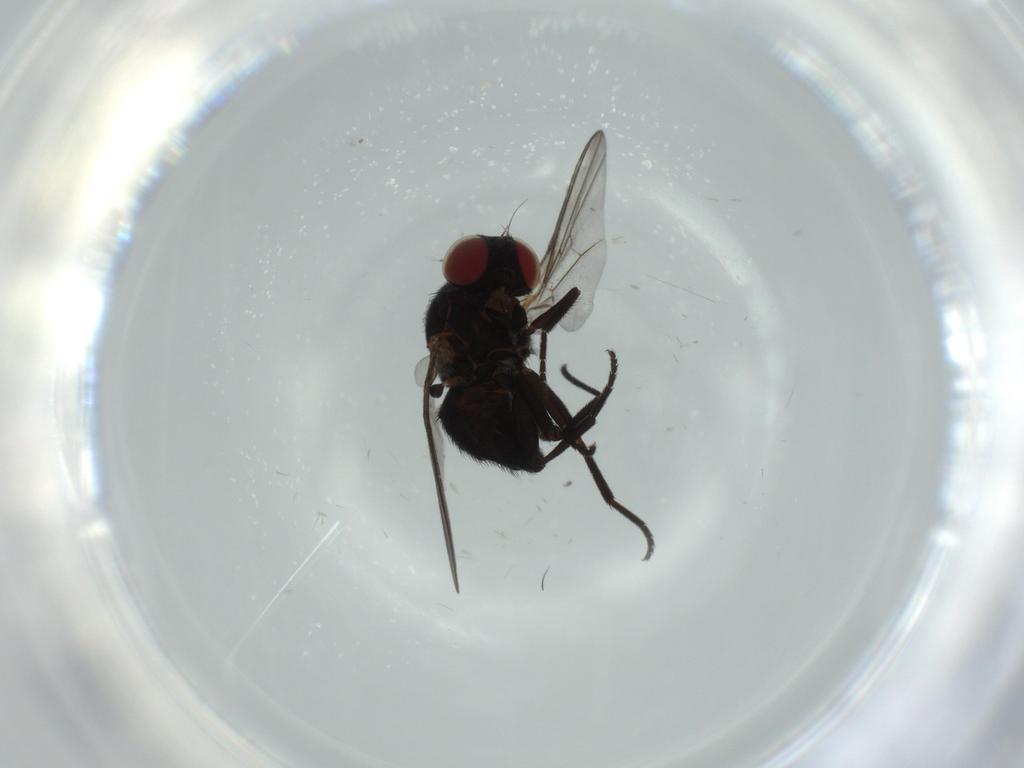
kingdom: Animalia
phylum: Arthropoda
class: Insecta
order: Diptera
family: Agromyzidae
